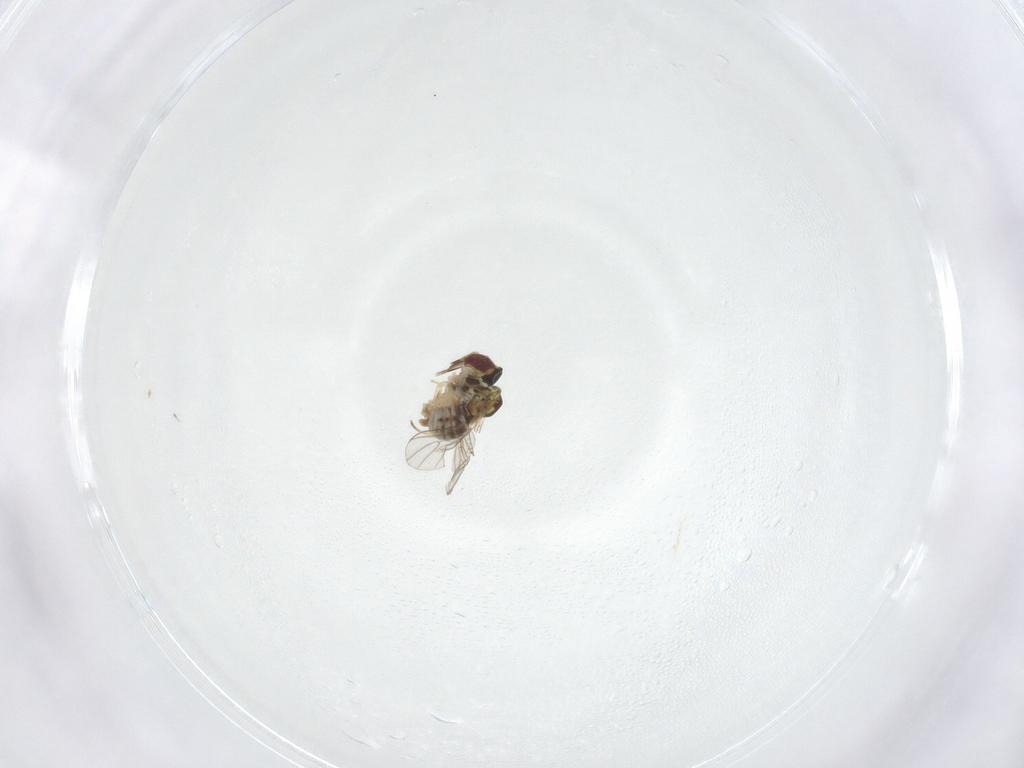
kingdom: Animalia
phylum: Arthropoda
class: Insecta
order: Diptera
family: Bombyliidae
